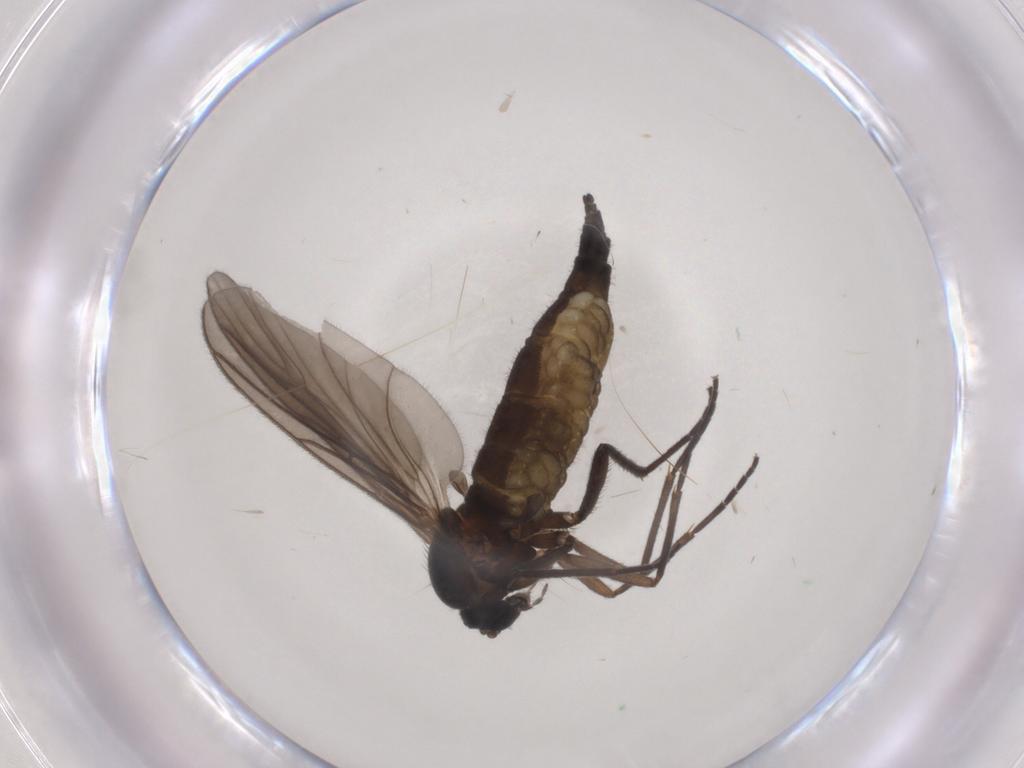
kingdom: Animalia
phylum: Arthropoda
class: Insecta
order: Diptera
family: Sciaridae
